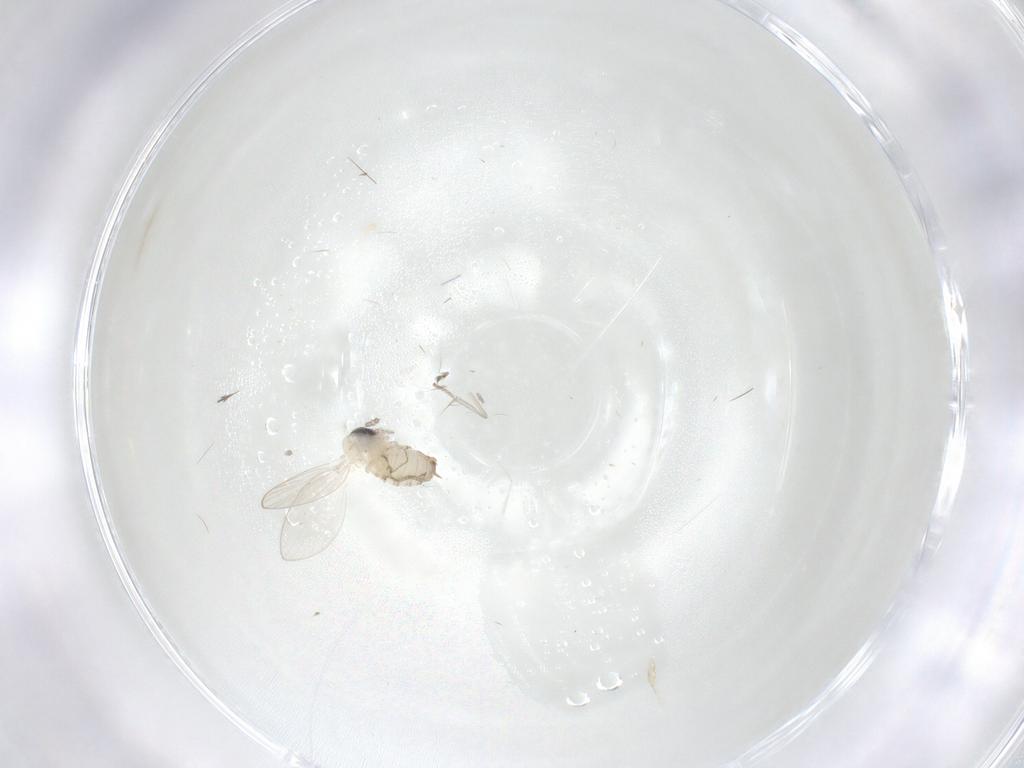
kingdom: Animalia
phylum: Arthropoda
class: Insecta
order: Diptera
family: Psychodidae
